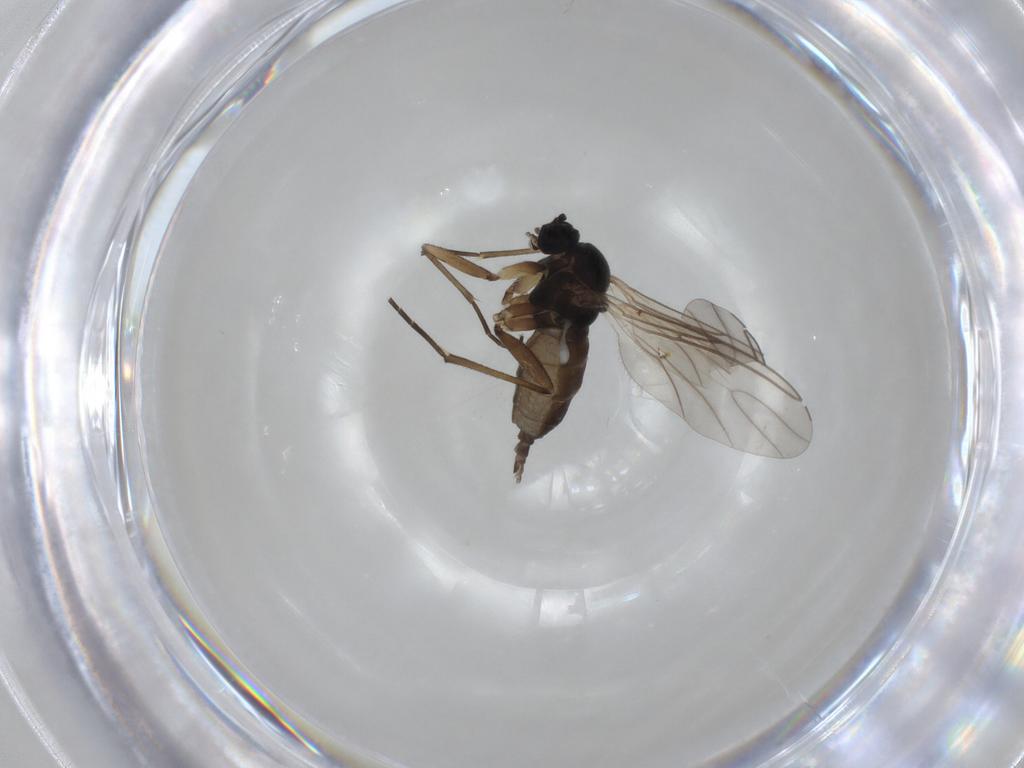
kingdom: Animalia
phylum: Arthropoda
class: Insecta
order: Diptera
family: Sciaridae
